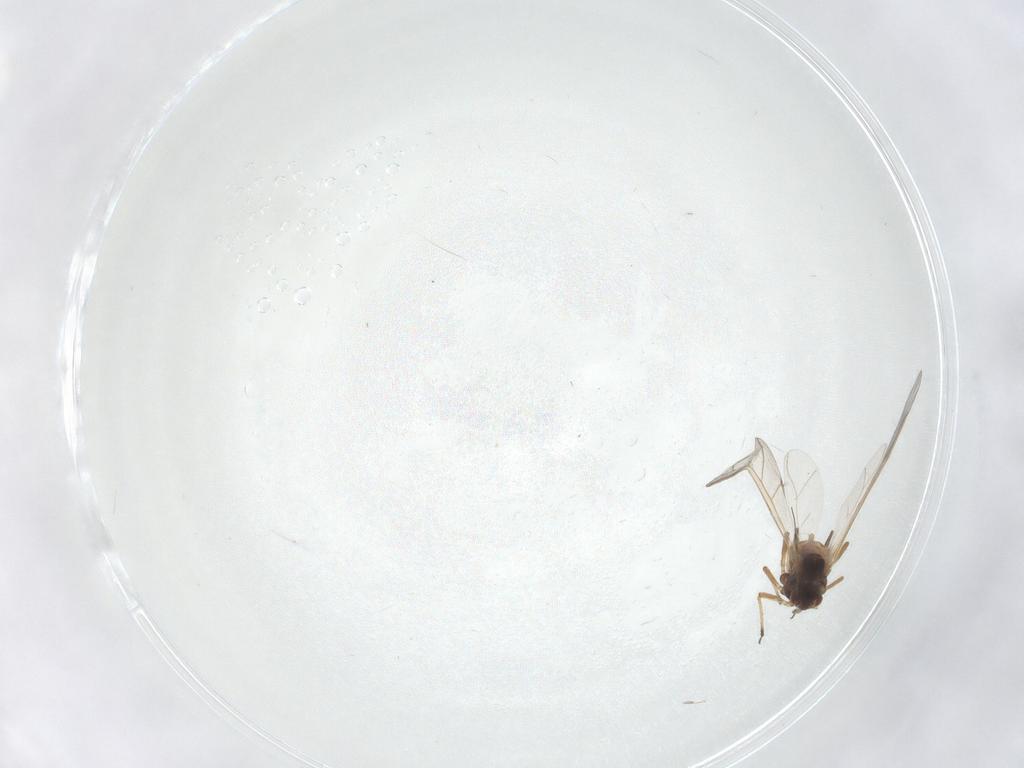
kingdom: Animalia
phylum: Arthropoda
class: Insecta
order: Hemiptera
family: Aphididae
